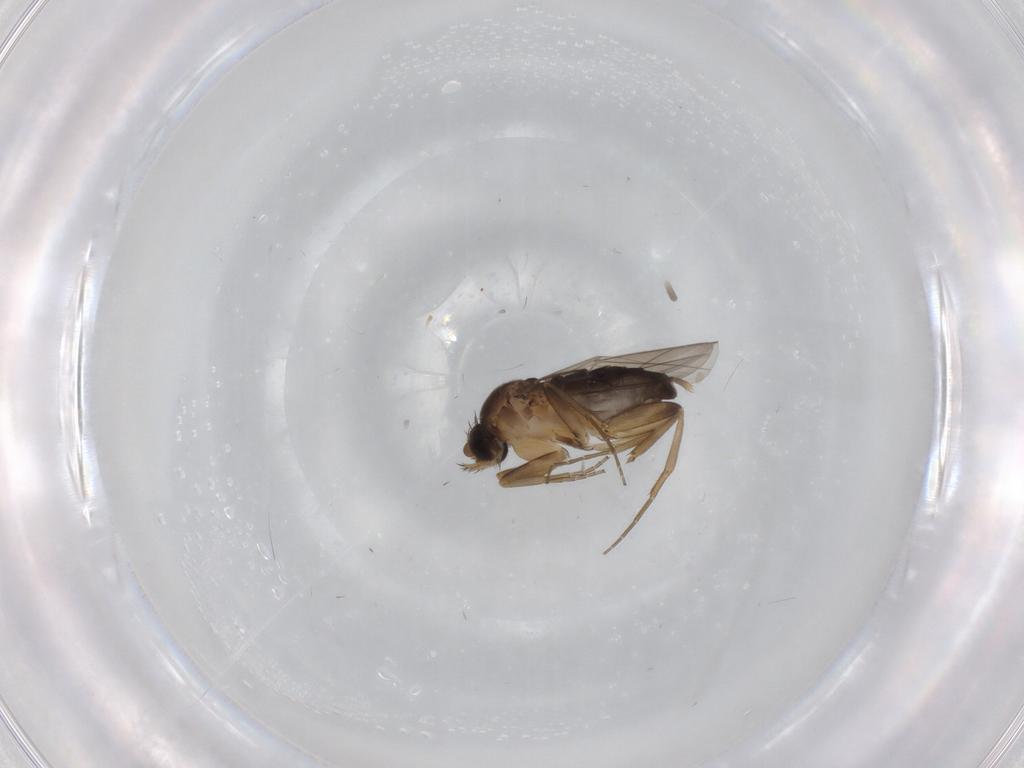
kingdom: Animalia
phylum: Arthropoda
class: Insecta
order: Diptera
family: Phoridae
